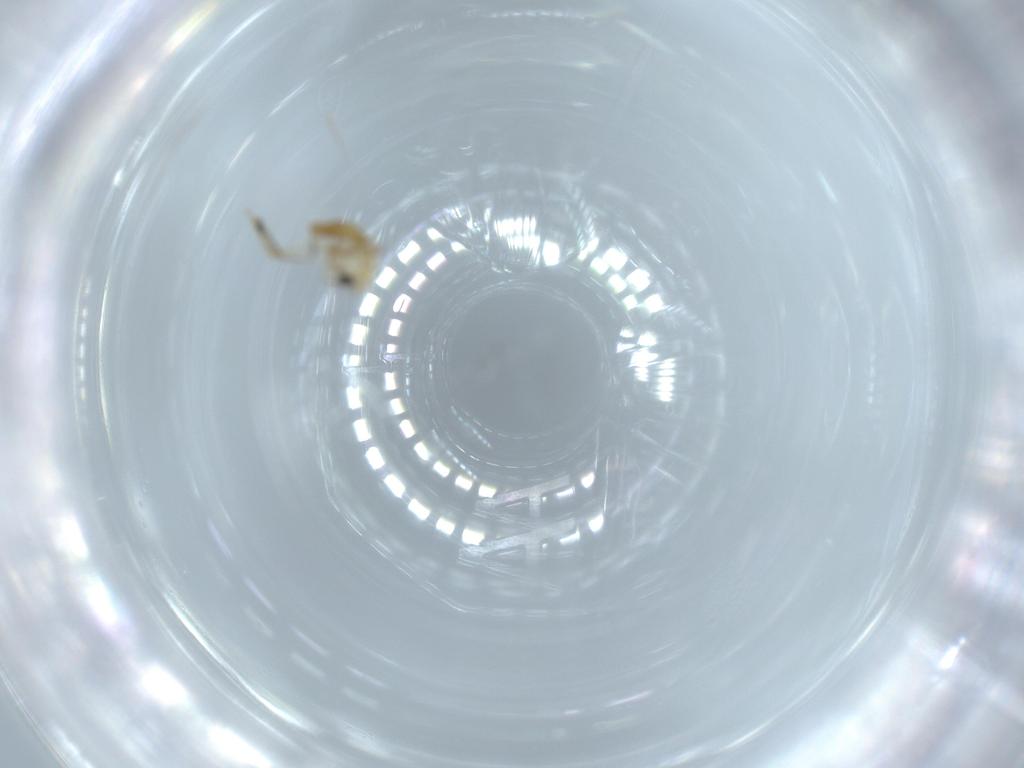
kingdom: Animalia
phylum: Arthropoda
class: Insecta
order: Diptera
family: Sciaridae
